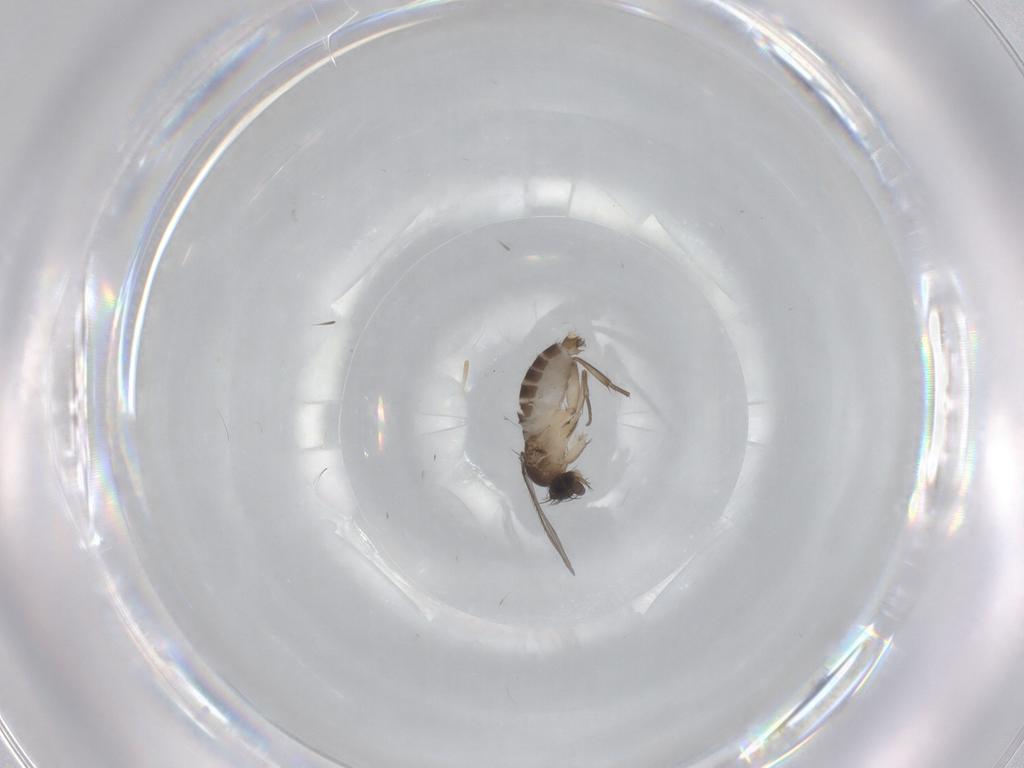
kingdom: Animalia
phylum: Arthropoda
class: Insecta
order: Diptera
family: Phoridae
